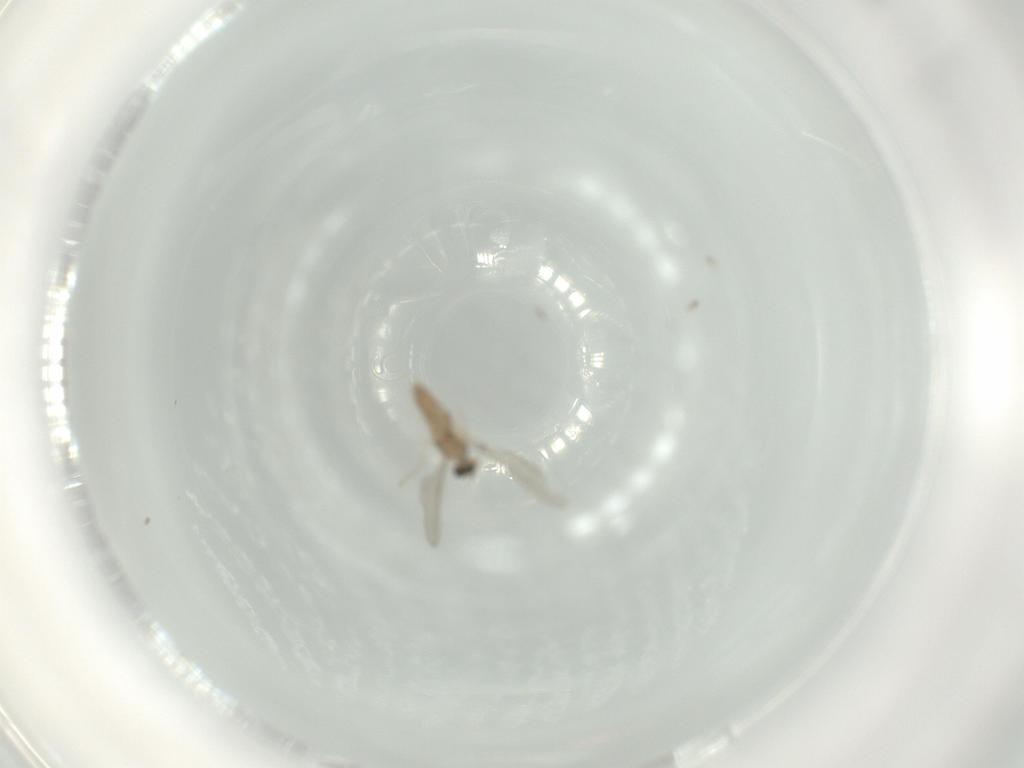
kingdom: Animalia
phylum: Arthropoda
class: Insecta
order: Diptera
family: Cecidomyiidae
